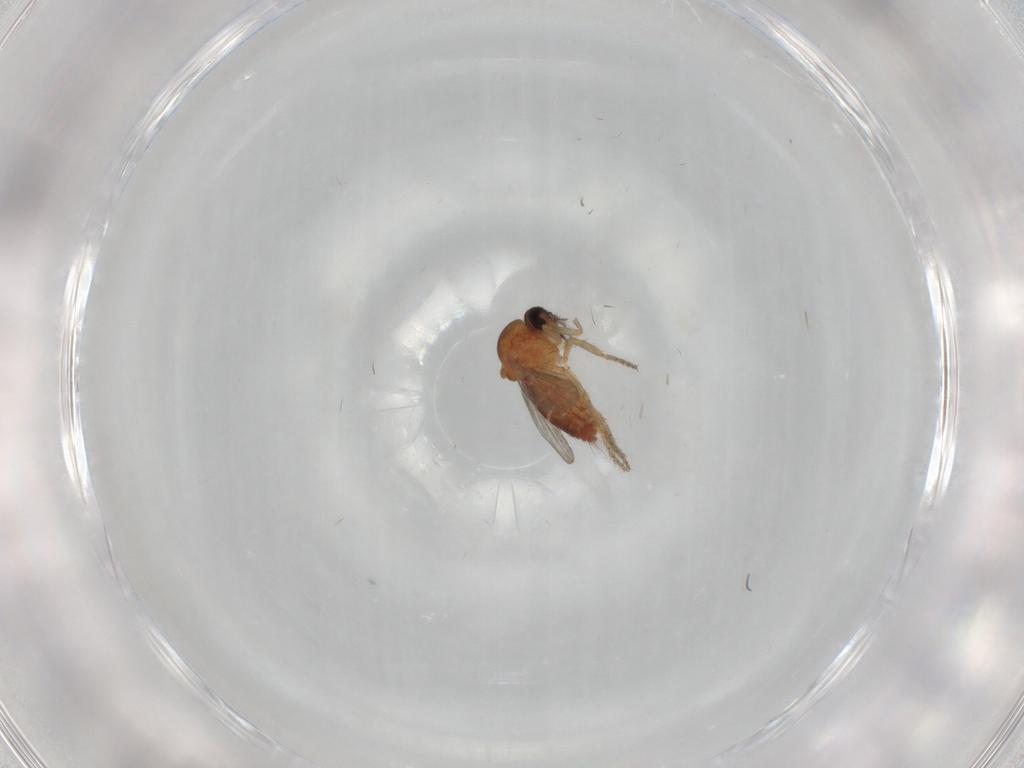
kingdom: Animalia
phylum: Arthropoda
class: Insecta
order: Diptera
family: Ceratopogonidae
